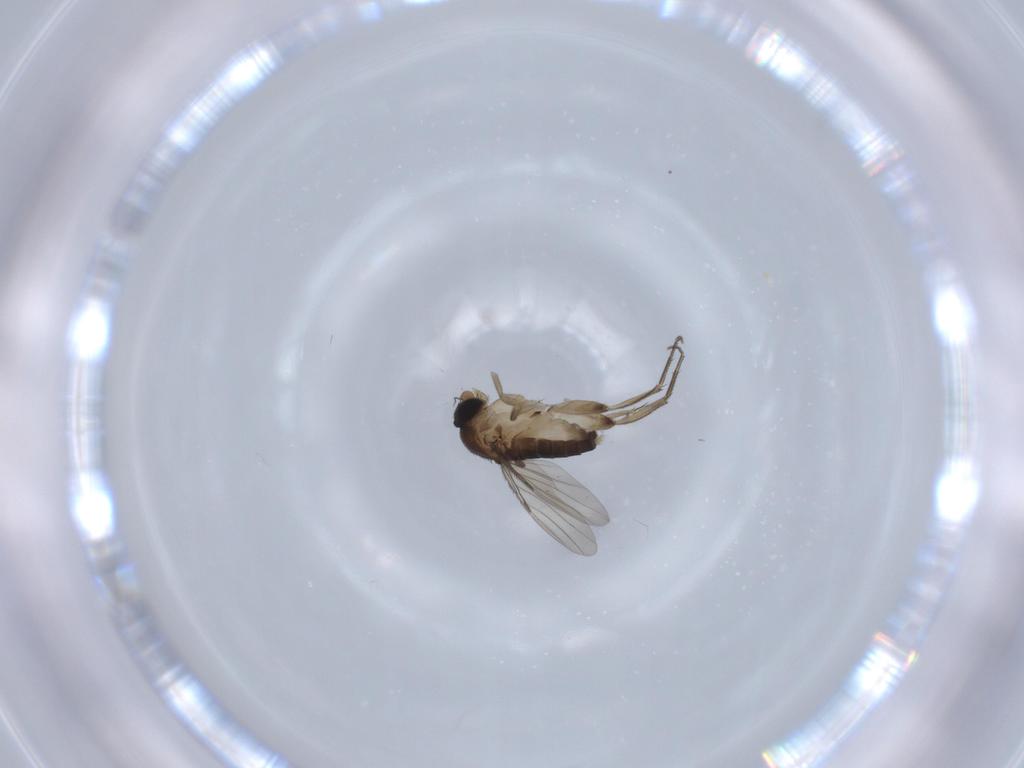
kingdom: Animalia
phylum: Arthropoda
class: Insecta
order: Diptera
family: Phoridae
